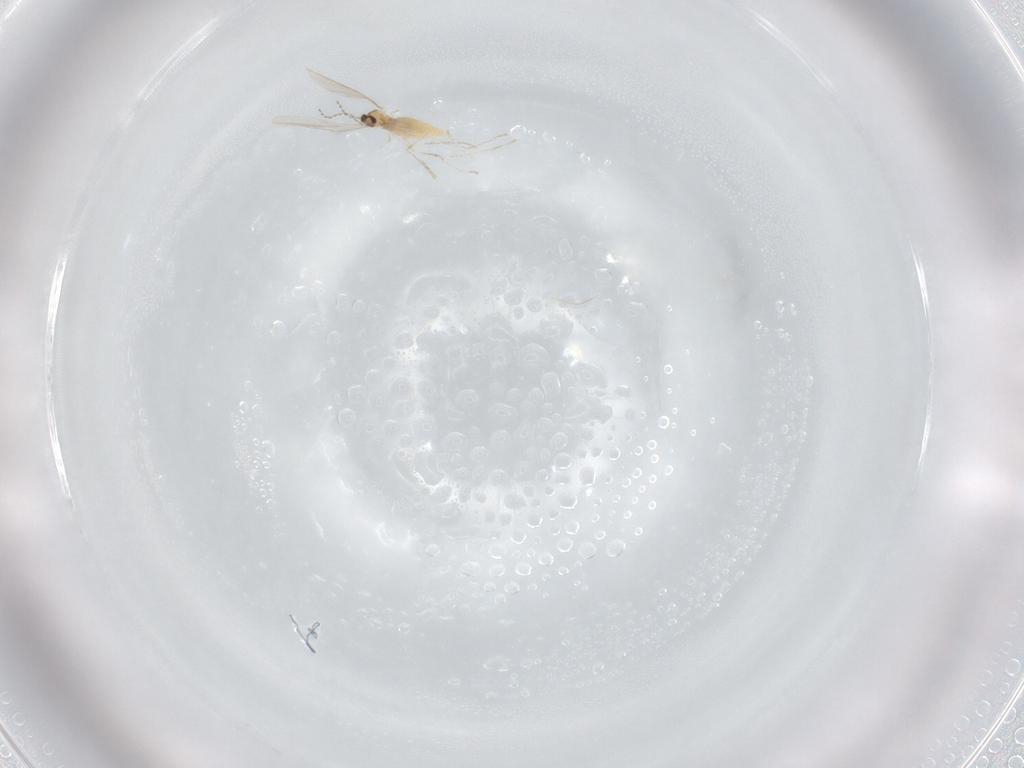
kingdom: Animalia
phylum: Arthropoda
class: Insecta
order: Diptera
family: Cecidomyiidae
